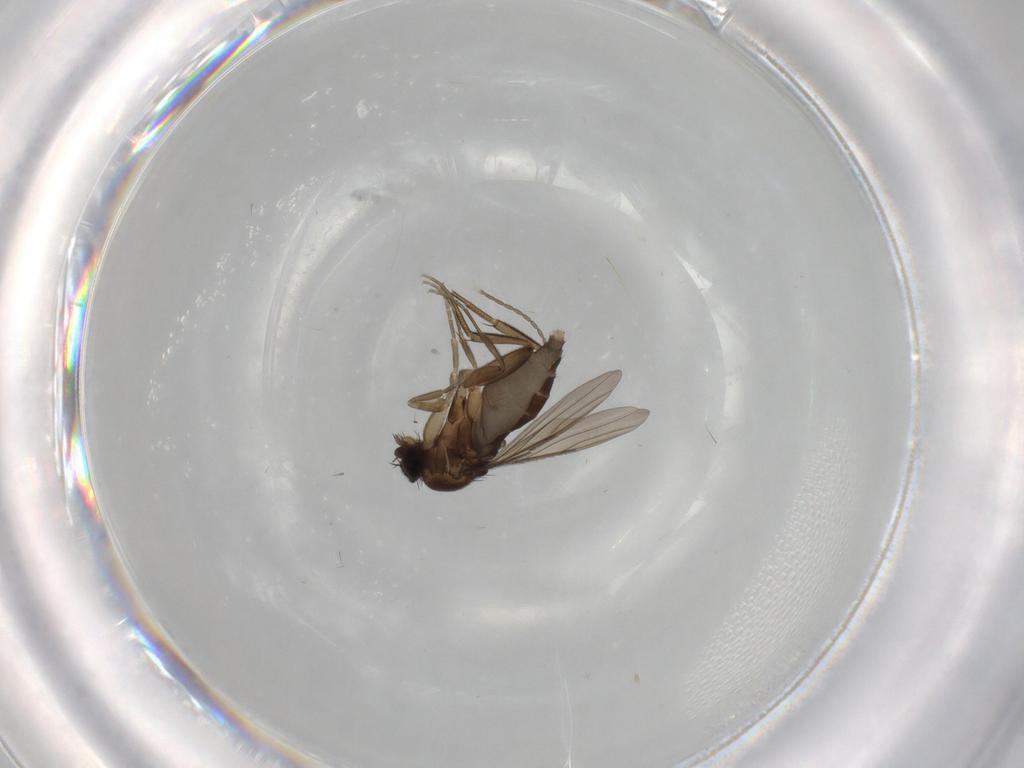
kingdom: Animalia
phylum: Arthropoda
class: Insecta
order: Diptera
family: Phoridae
